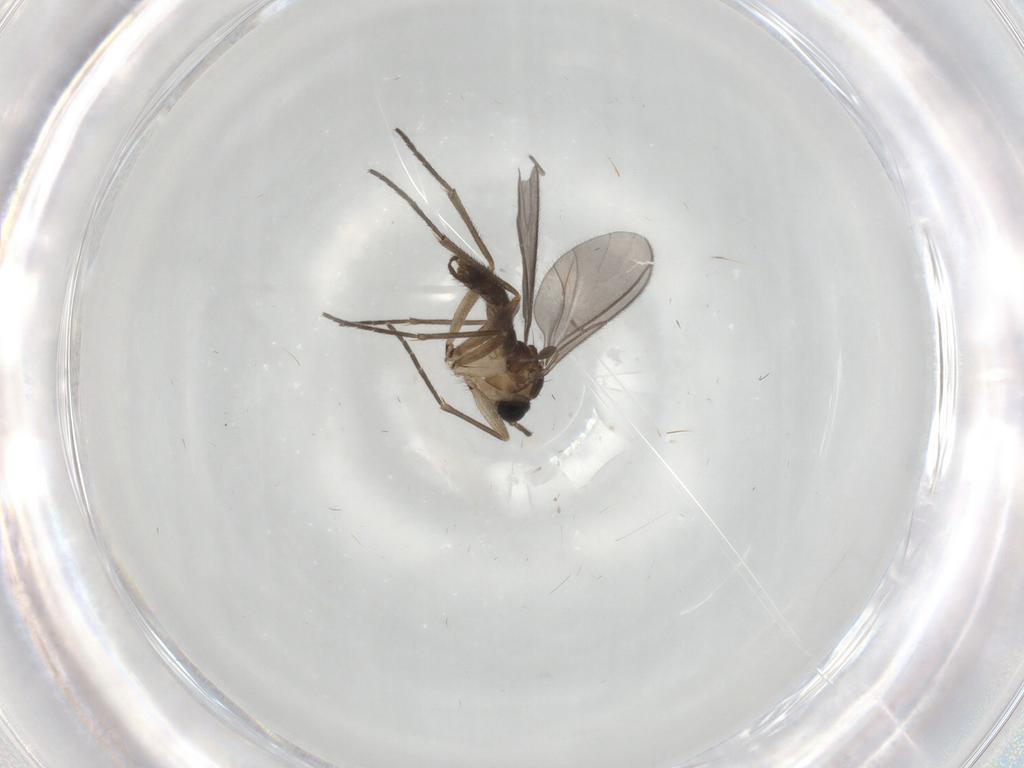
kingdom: Animalia
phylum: Arthropoda
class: Insecta
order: Diptera
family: Sciaridae
